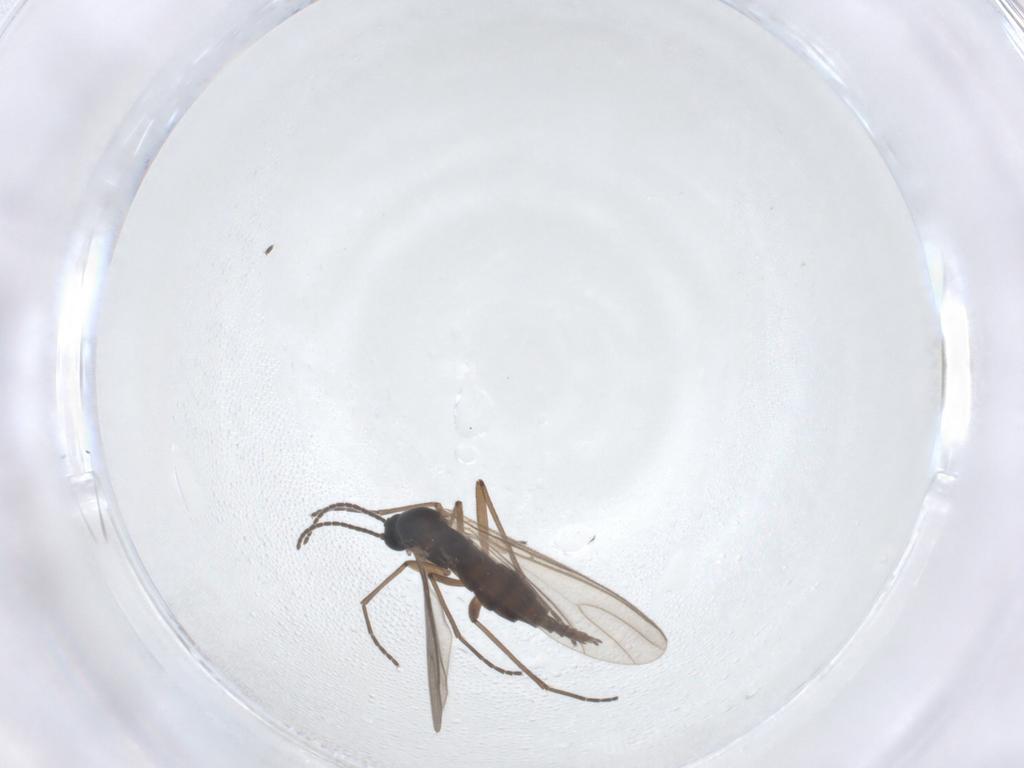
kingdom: Animalia
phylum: Arthropoda
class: Insecta
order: Diptera
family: Sciaridae
